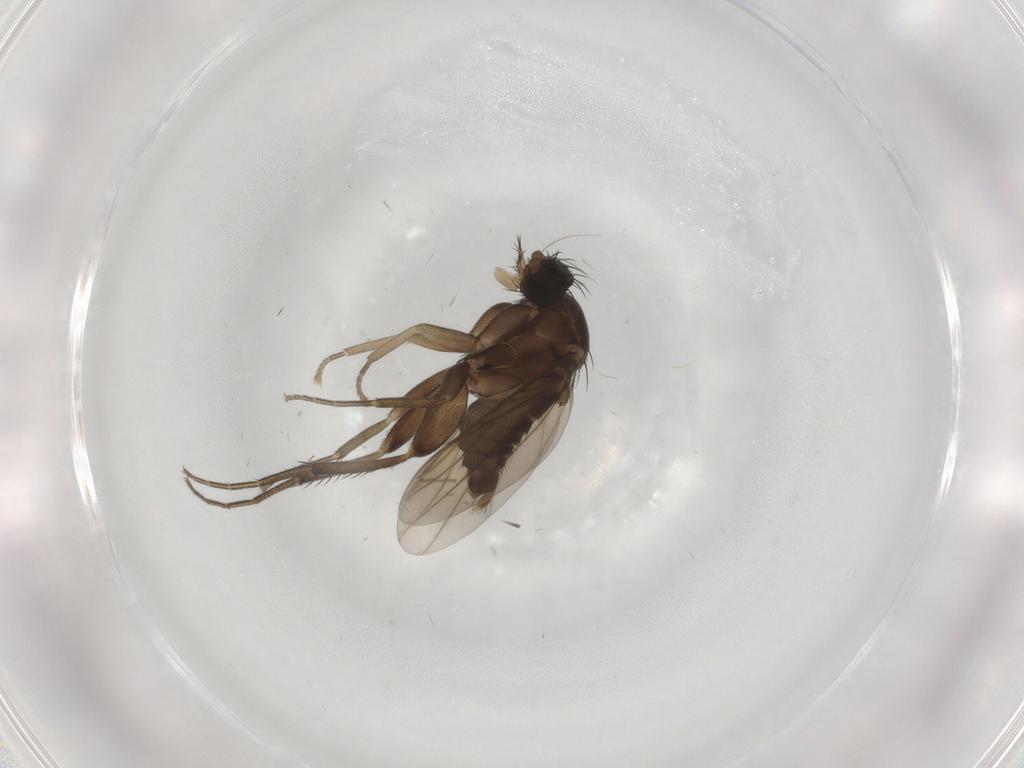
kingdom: Animalia
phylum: Arthropoda
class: Insecta
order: Diptera
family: Phoridae
